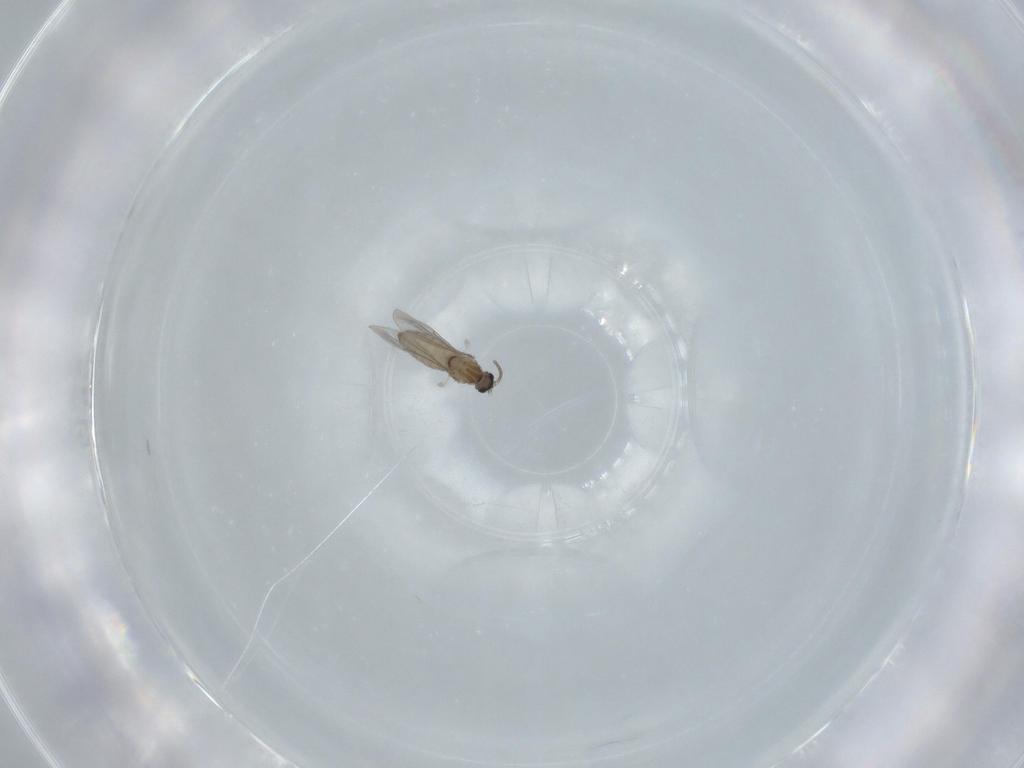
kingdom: Animalia
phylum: Arthropoda
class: Insecta
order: Diptera
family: Cecidomyiidae
